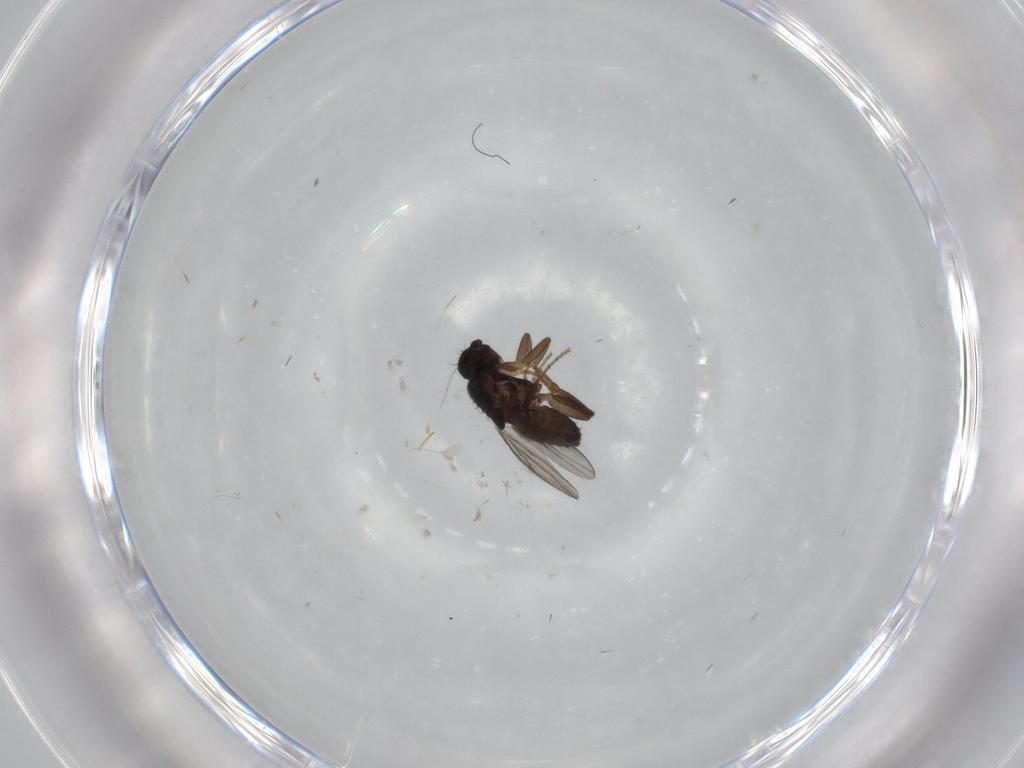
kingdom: Animalia
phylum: Arthropoda
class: Insecta
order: Diptera
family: Sphaeroceridae
